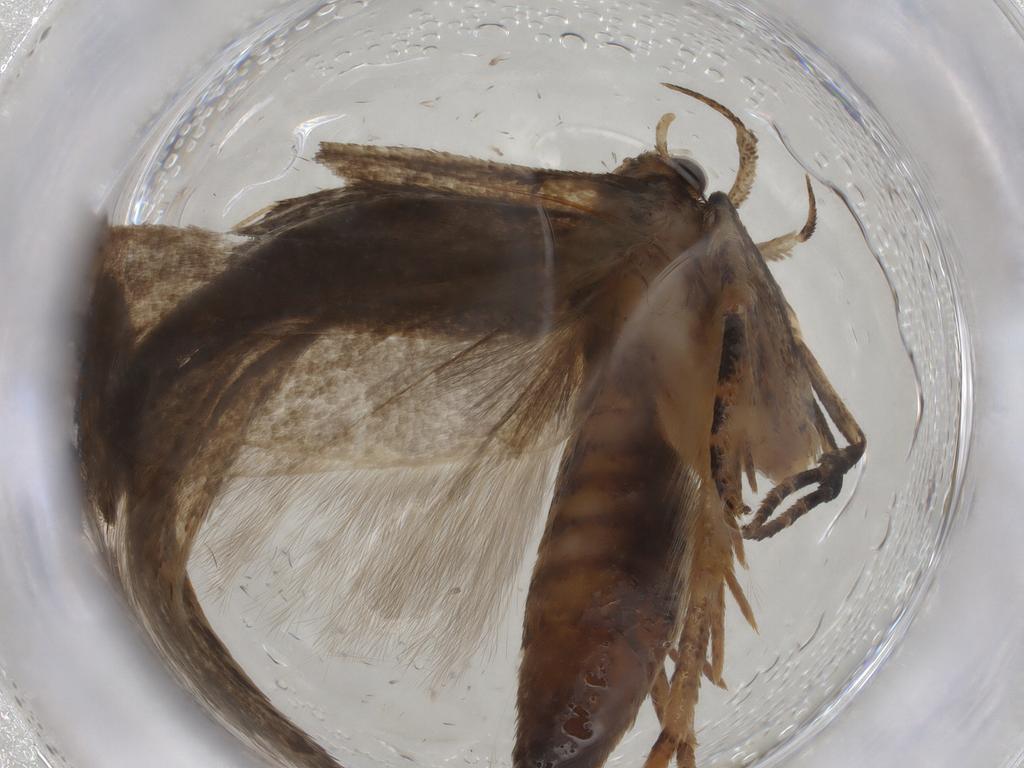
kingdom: Animalia
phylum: Arthropoda
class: Insecta
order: Lepidoptera
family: Gelechiidae
